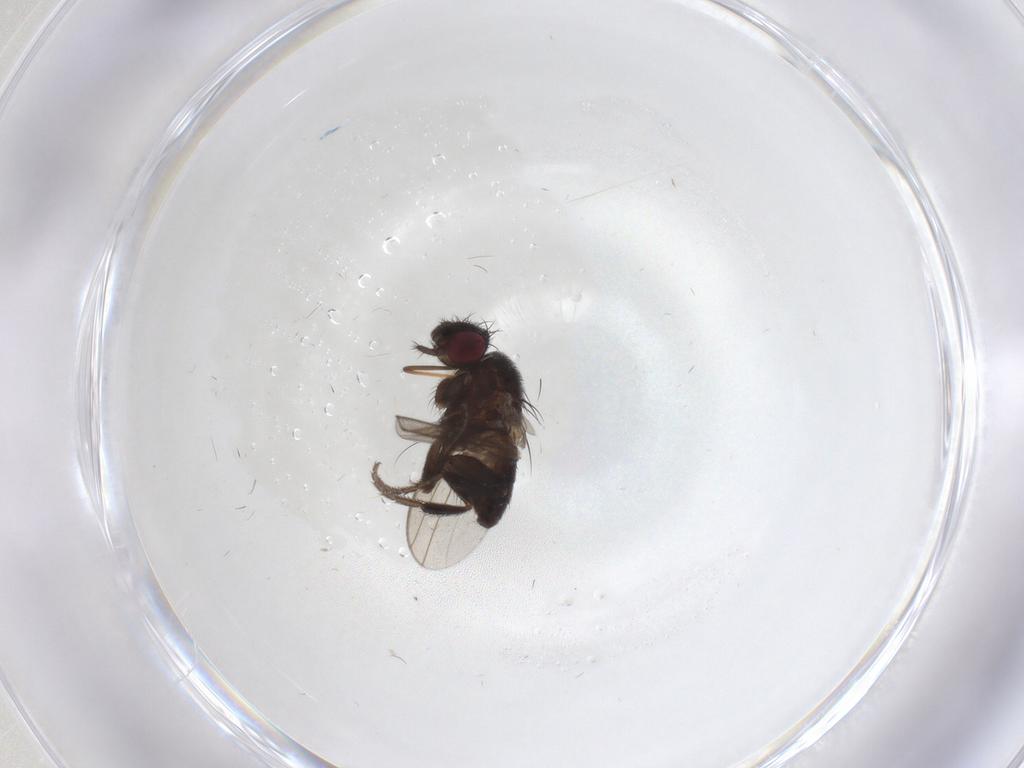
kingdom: Animalia
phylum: Arthropoda
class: Insecta
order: Diptera
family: Milichiidae
